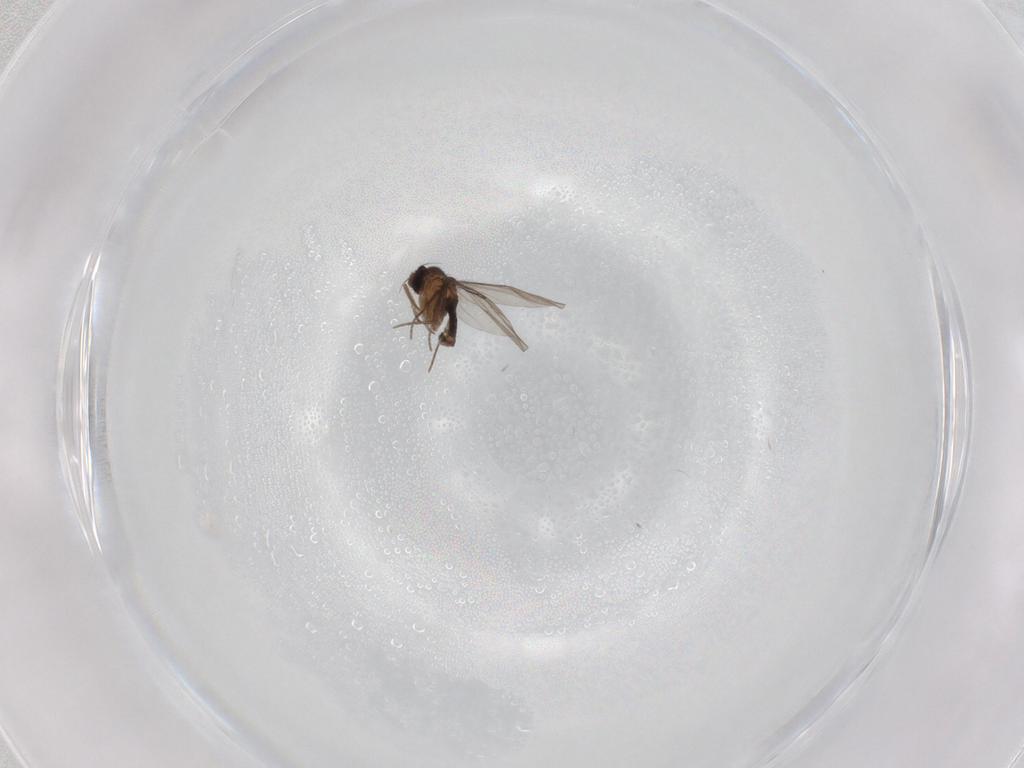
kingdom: Animalia
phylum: Arthropoda
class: Insecta
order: Diptera
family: Phoridae
